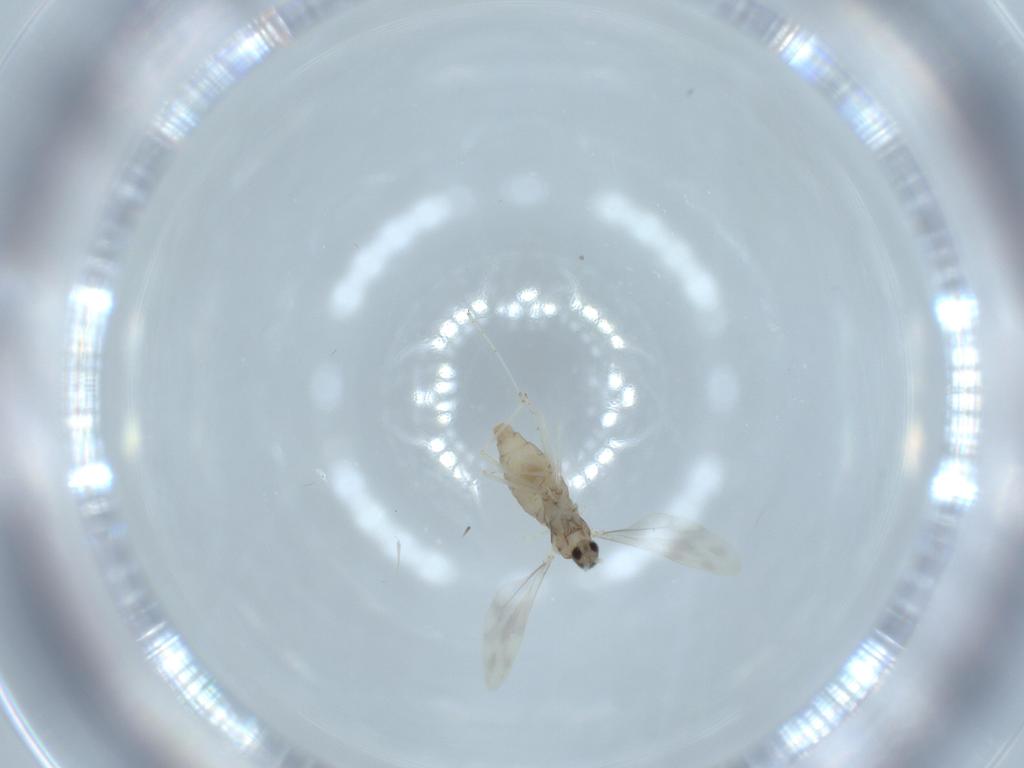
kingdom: Animalia
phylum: Arthropoda
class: Insecta
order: Diptera
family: Cecidomyiidae
